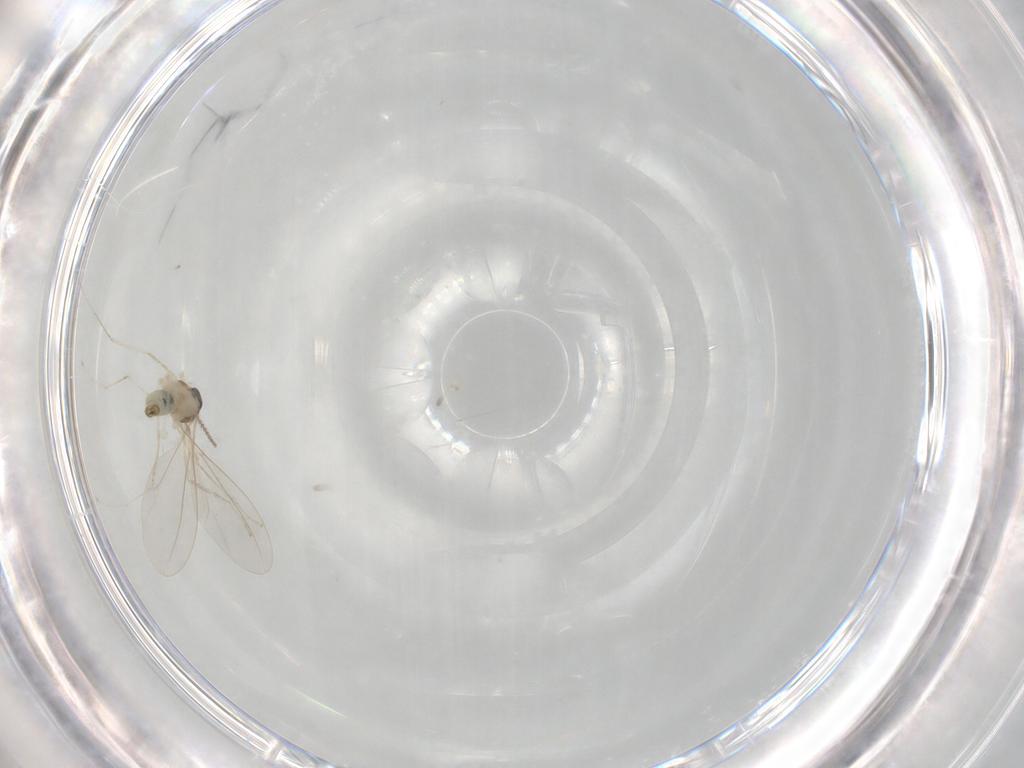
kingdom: Animalia
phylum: Arthropoda
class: Insecta
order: Diptera
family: Cecidomyiidae
